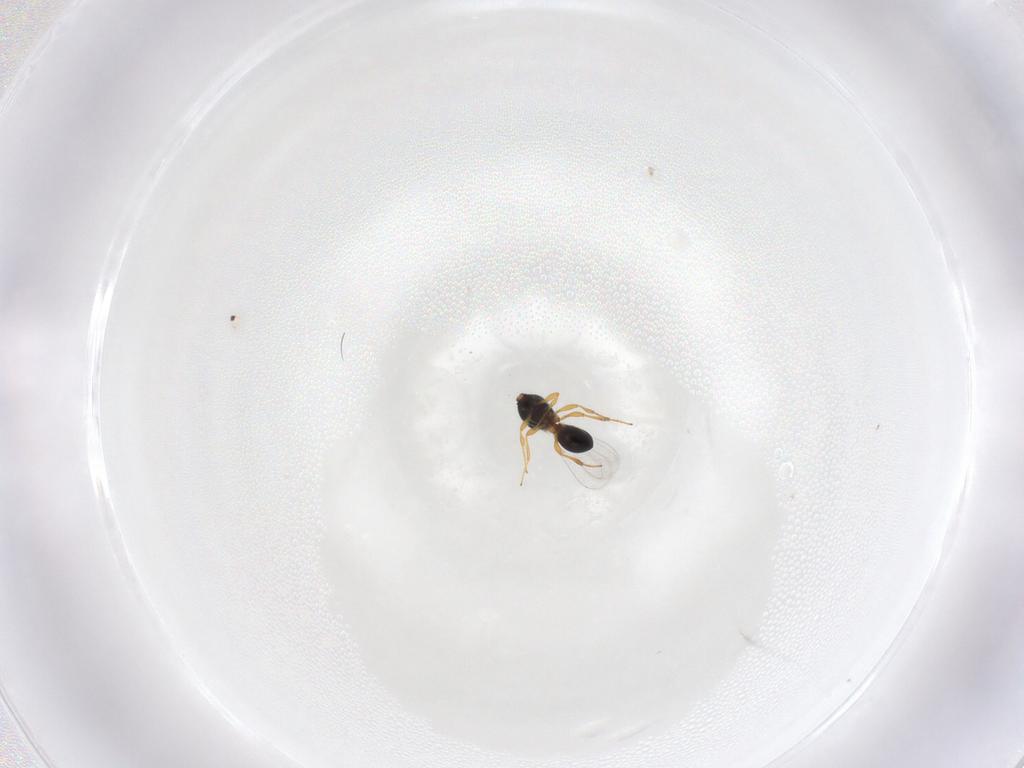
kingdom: Animalia
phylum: Arthropoda
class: Insecta
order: Hymenoptera
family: Platygastridae
